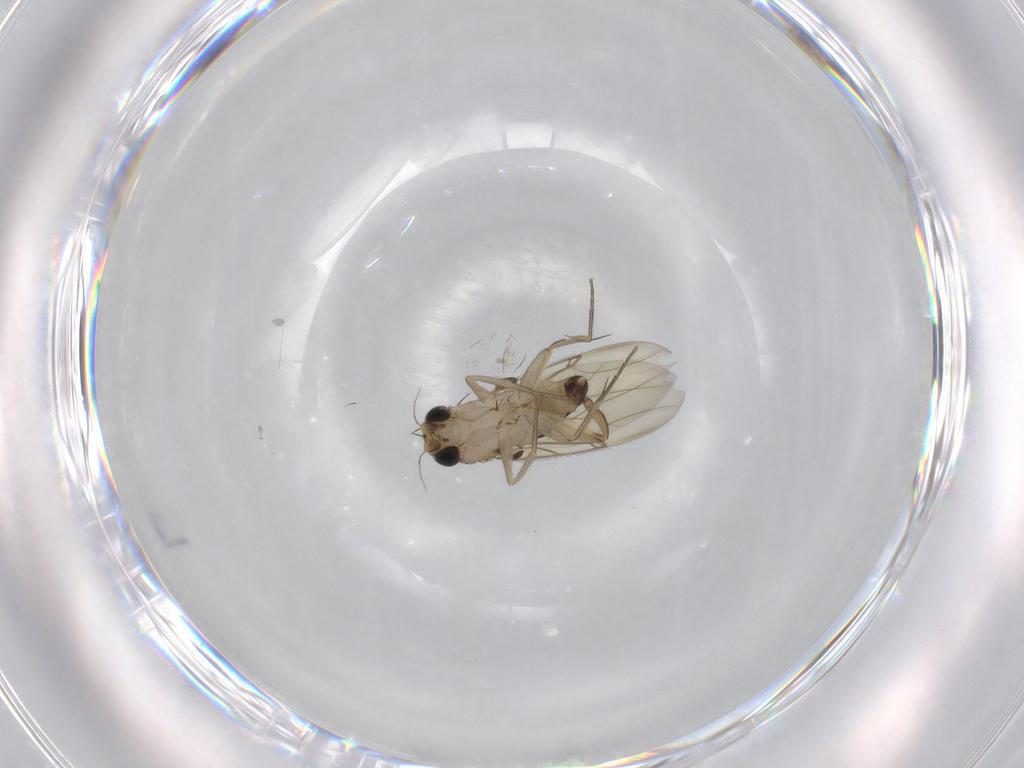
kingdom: Animalia
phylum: Arthropoda
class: Insecta
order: Diptera
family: Phoridae
